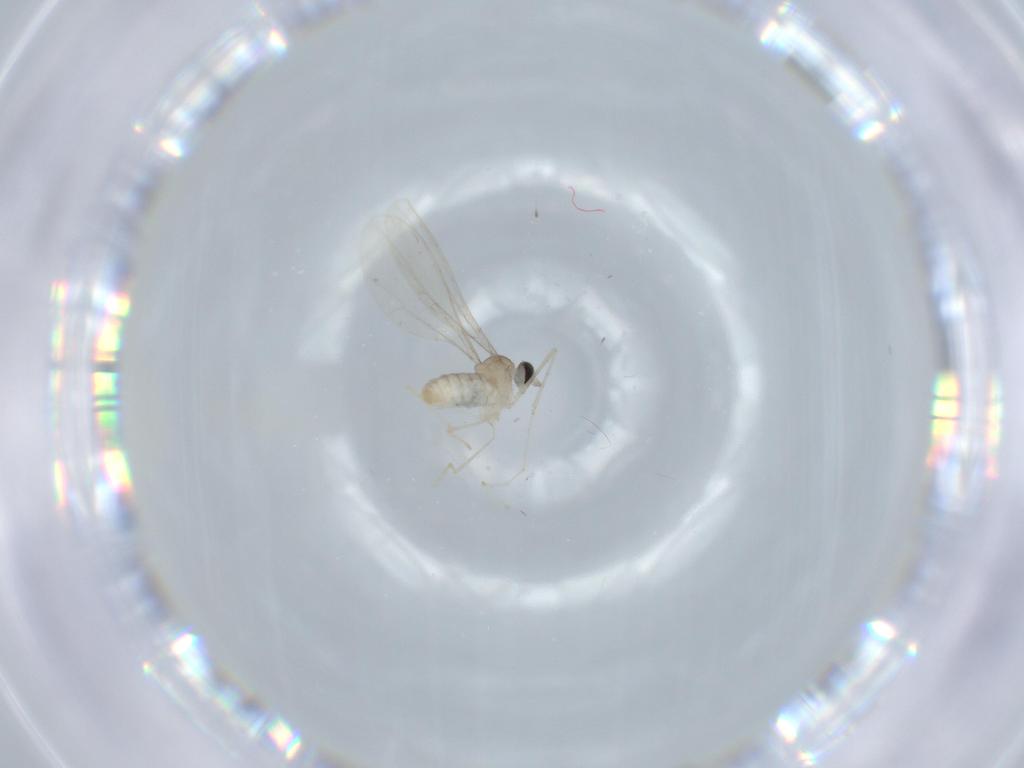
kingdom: Animalia
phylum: Arthropoda
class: Insecta
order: Diptera
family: Cecidomyiidae
